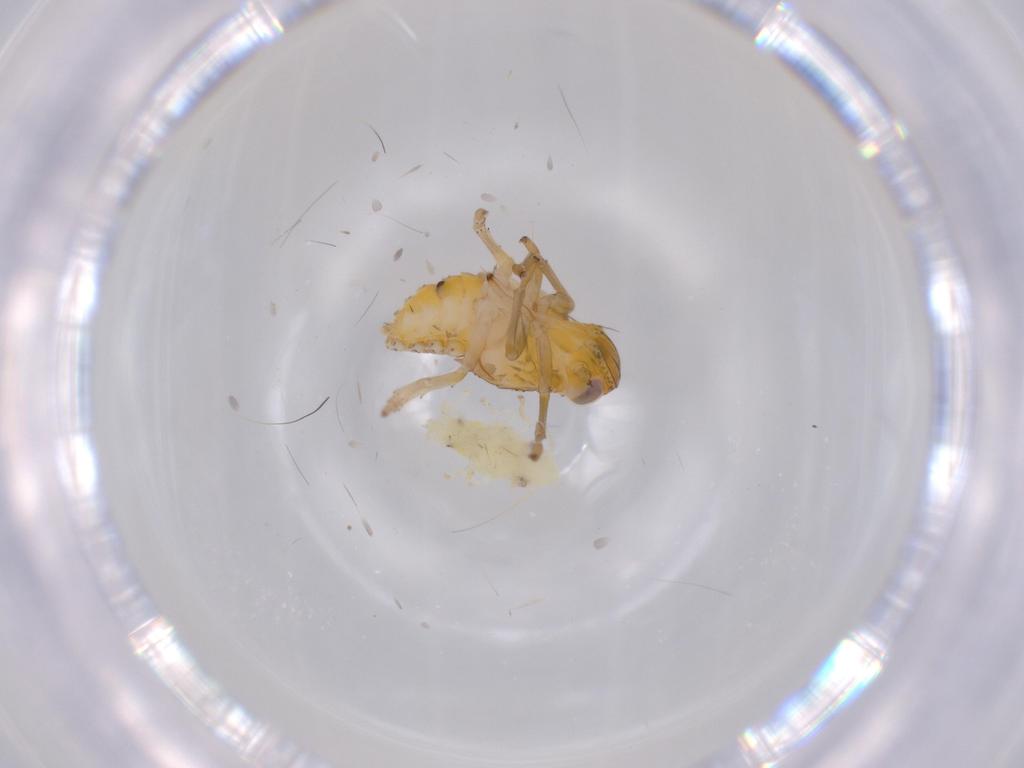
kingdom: Animalia
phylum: Arthropoda
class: Insecta
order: Hemiptera
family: Issidae
